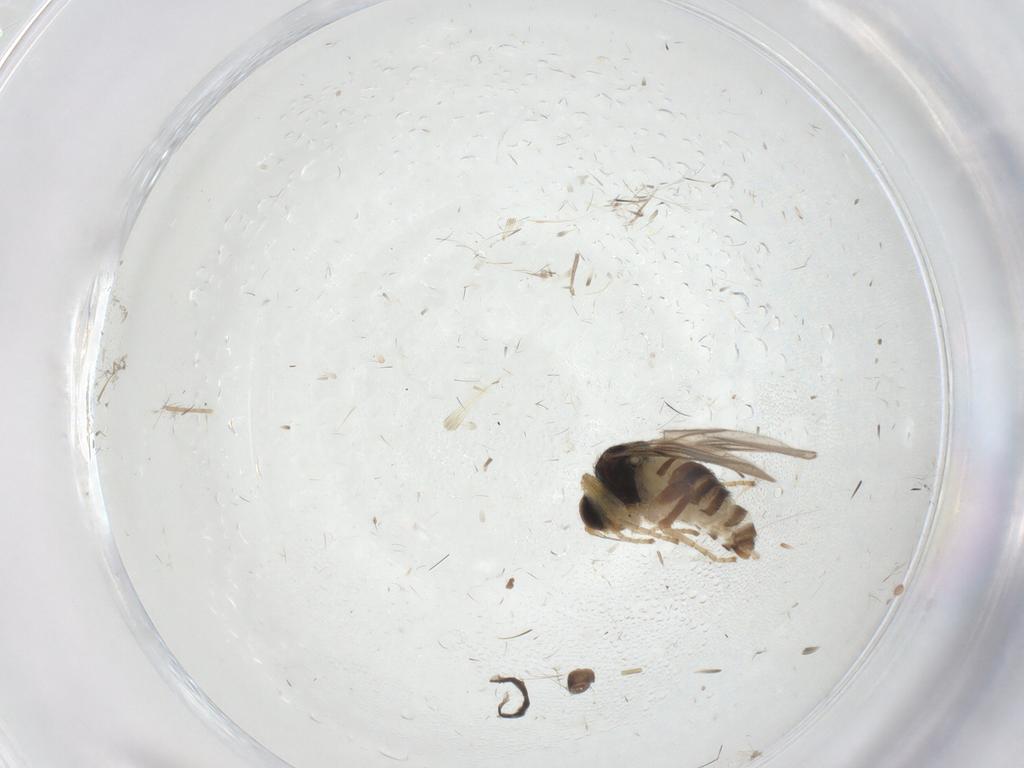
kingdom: Animalia
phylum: Arthropoda
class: Insecta
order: Diptera
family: Hybotidae
